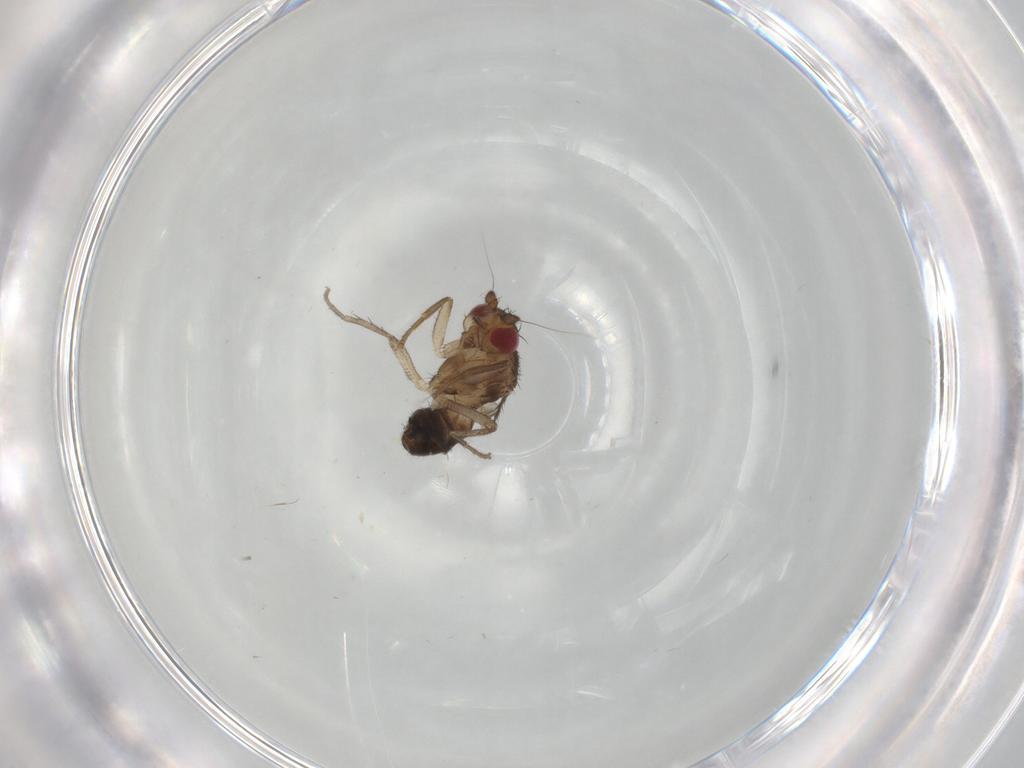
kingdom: Animalia
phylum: Arthropoda
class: Insecta
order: Diptera
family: Sphaeroceridae
